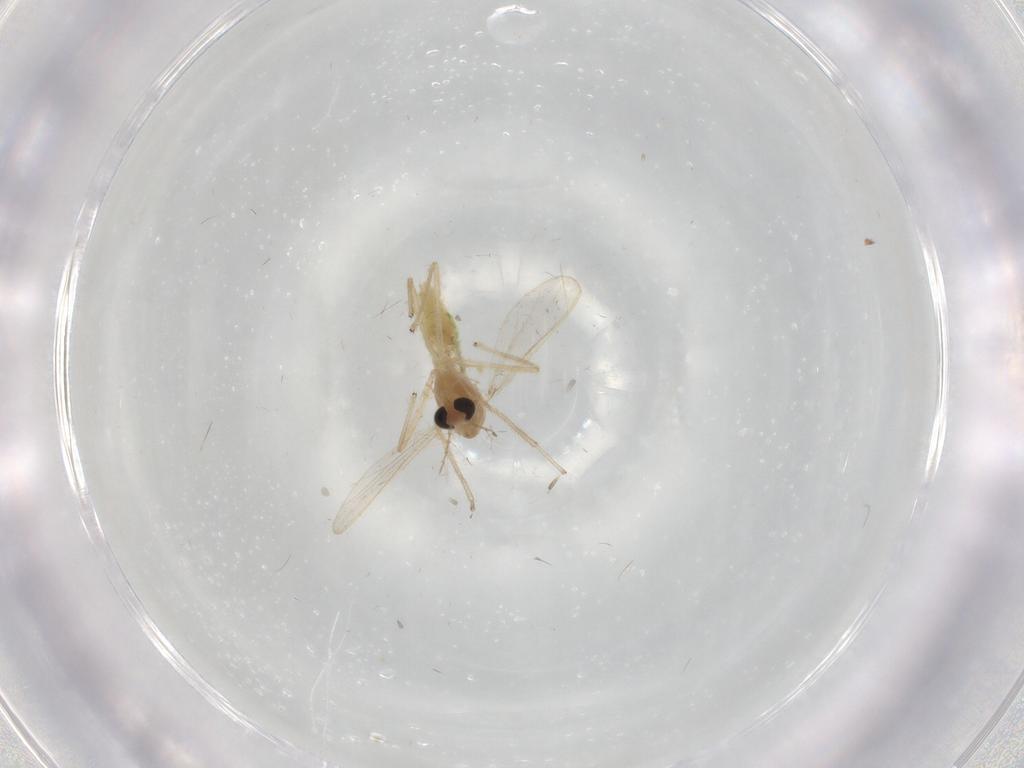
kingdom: Animalia
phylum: Arthropoda
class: Insecta
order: Diptera
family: Chironomidae
